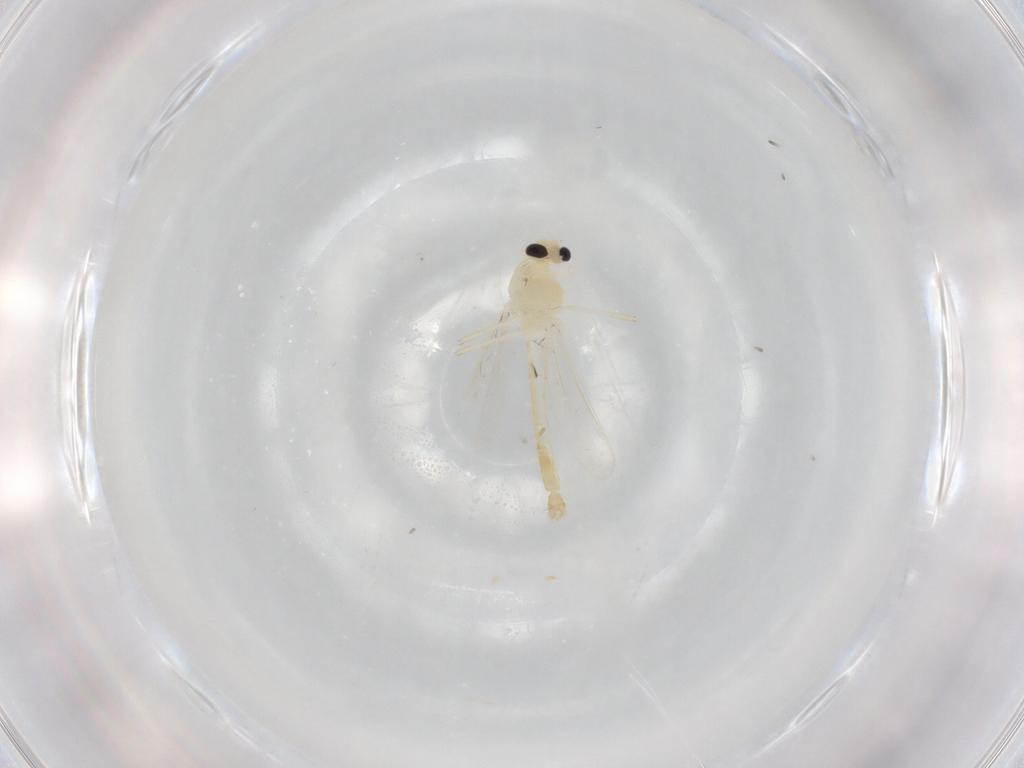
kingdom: Animalia
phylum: Arthropoda
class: Insecta
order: Diptera
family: Chironomidae
